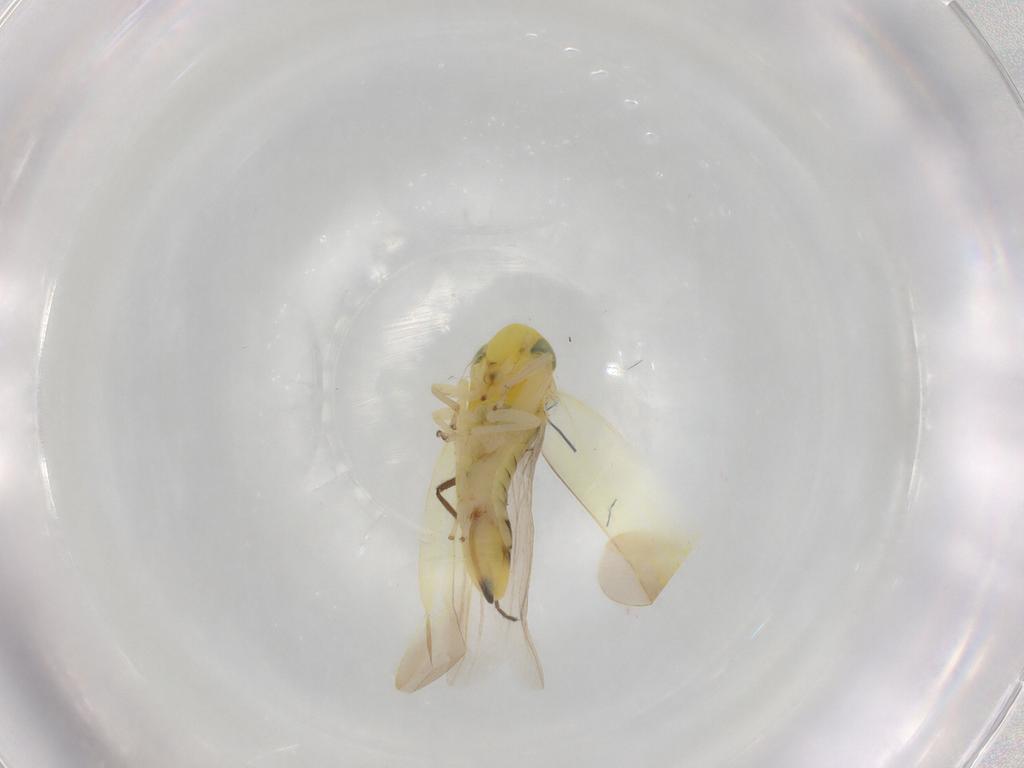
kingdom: Animalia
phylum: Arthropoda
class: Insecta
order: Hemiptera
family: Cicadellidae
